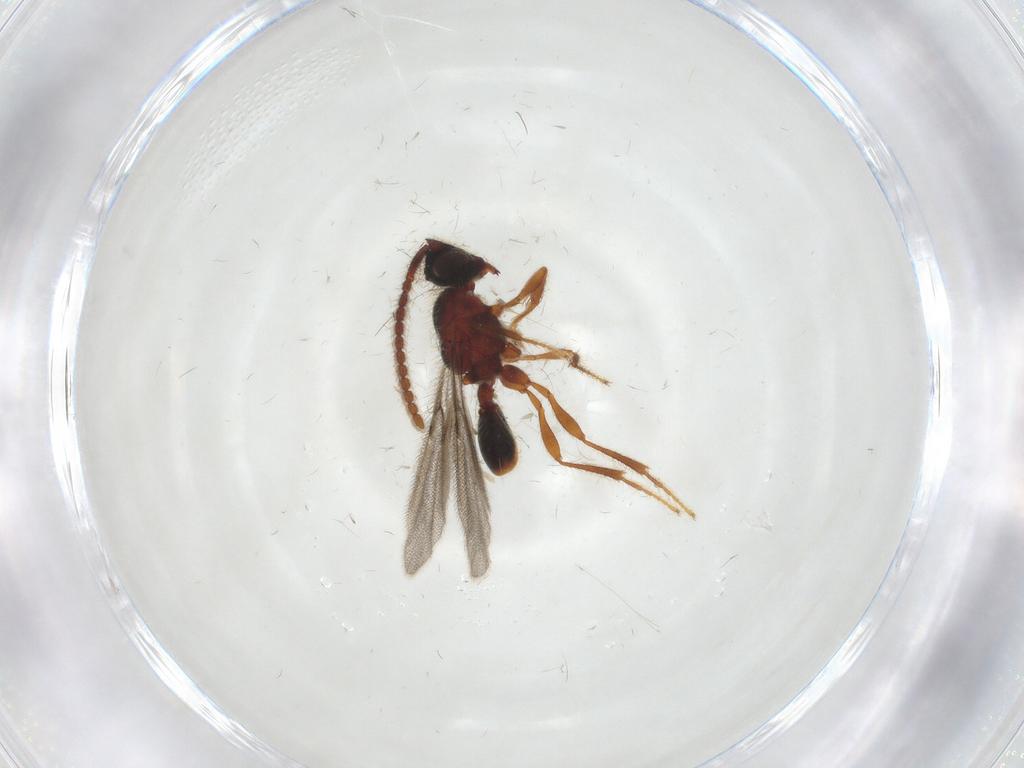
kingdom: Animalia
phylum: Arthropoda
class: Insecta
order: Hymenoptera
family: Diapriidae
